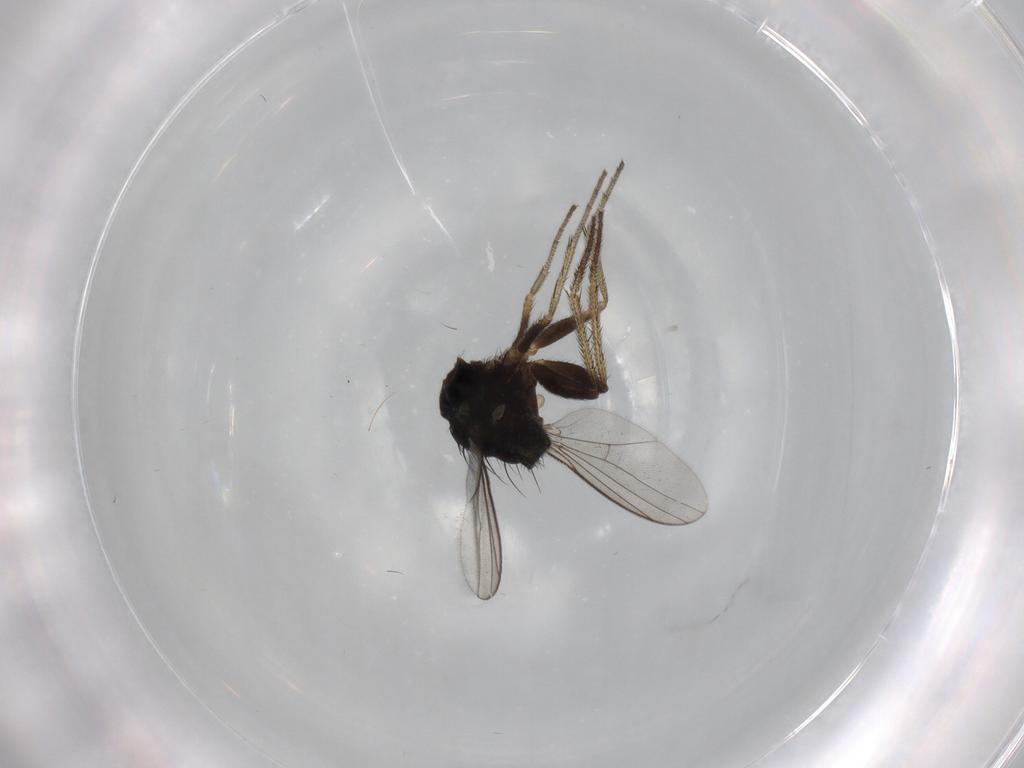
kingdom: Animalia
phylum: Arthropoda
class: Insecta
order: Diptera
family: Dolichopodidae
